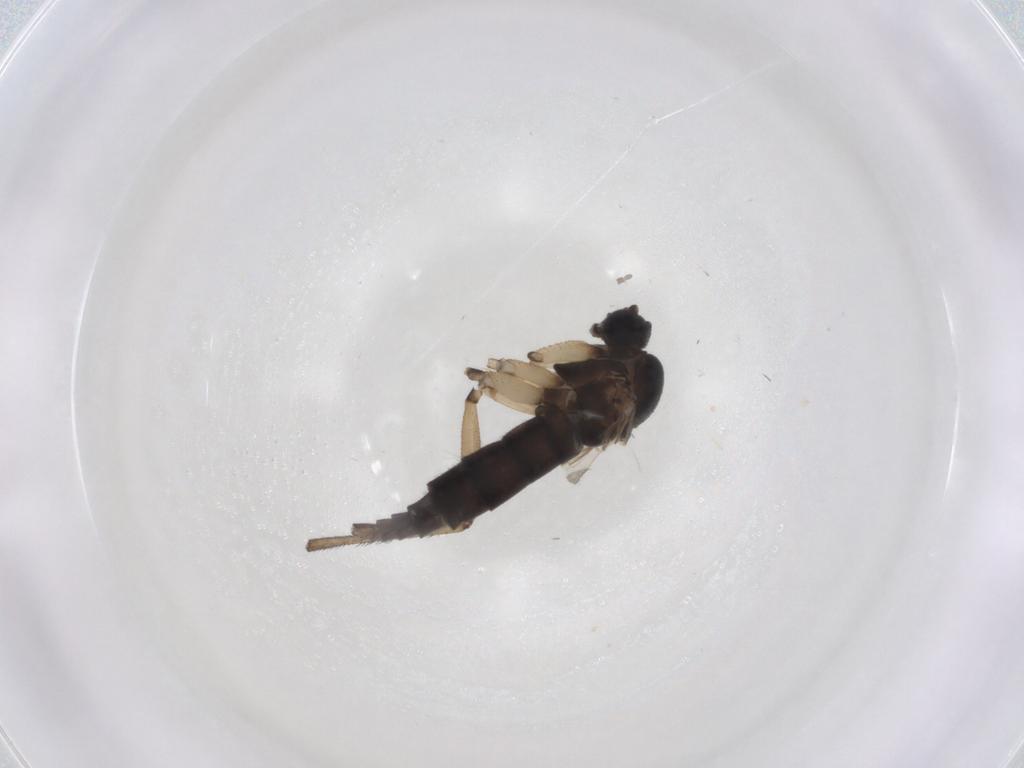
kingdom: Animalia
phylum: Arthropoda
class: Insecta
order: Diptera
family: Sciaridae
